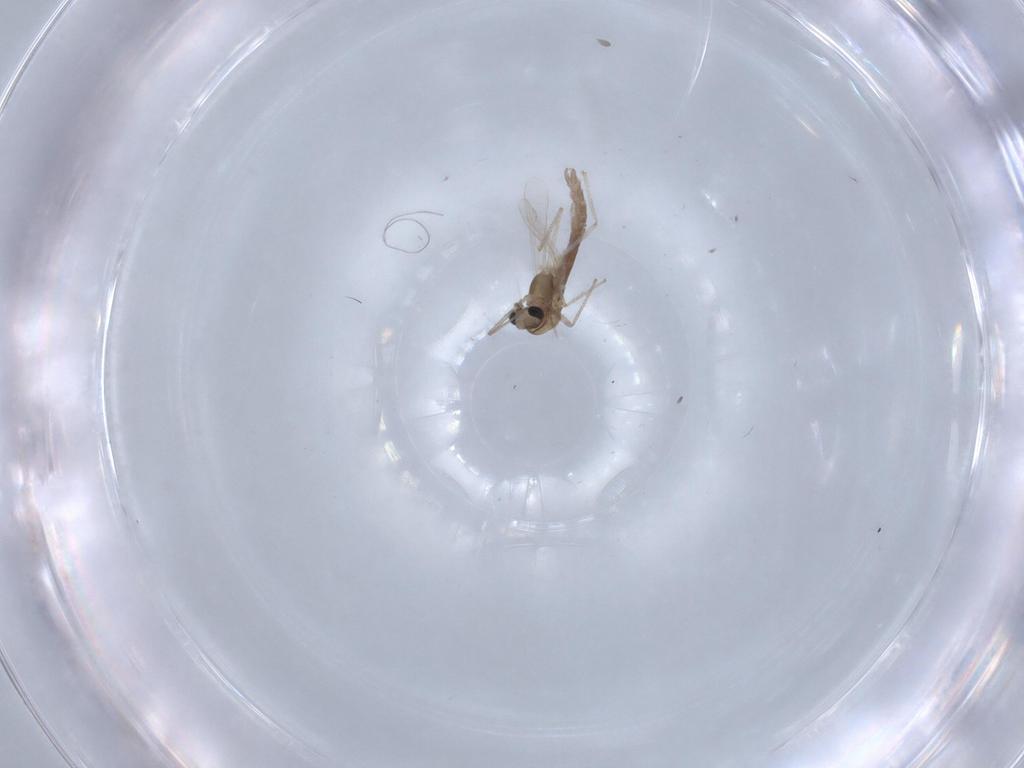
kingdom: Animalia
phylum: Arthropoda
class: Insecta
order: Diptera
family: Chironomidae
